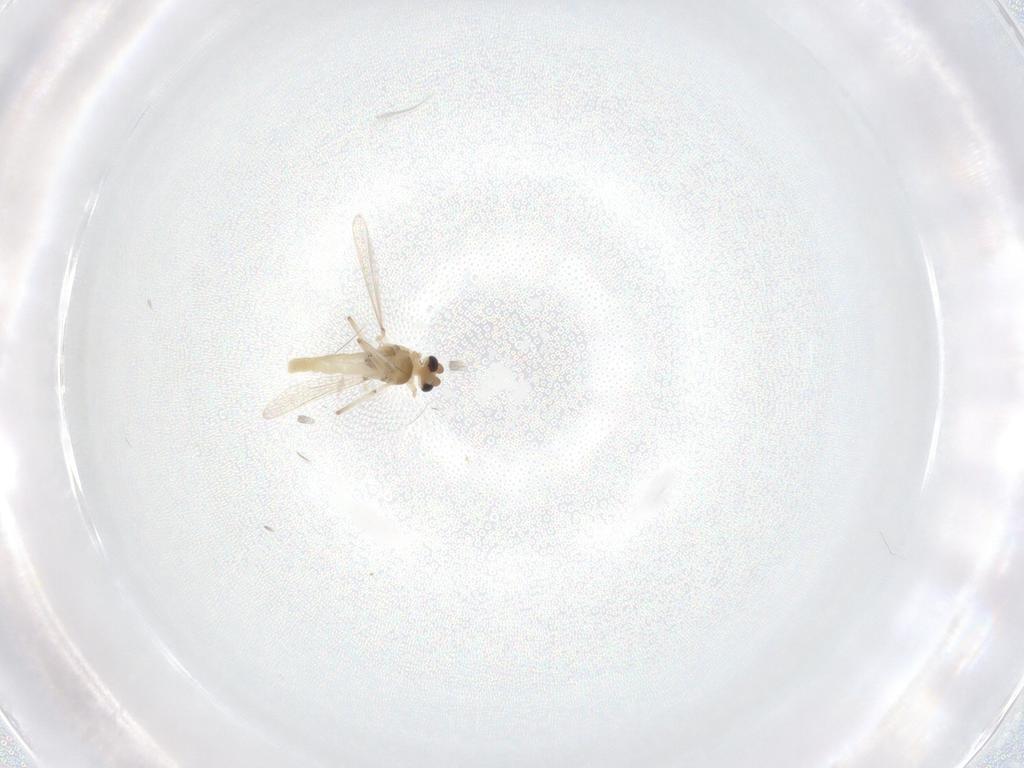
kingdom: Animalia
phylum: Arthropoda
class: Insecta
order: Diptera
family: Chironomidae
